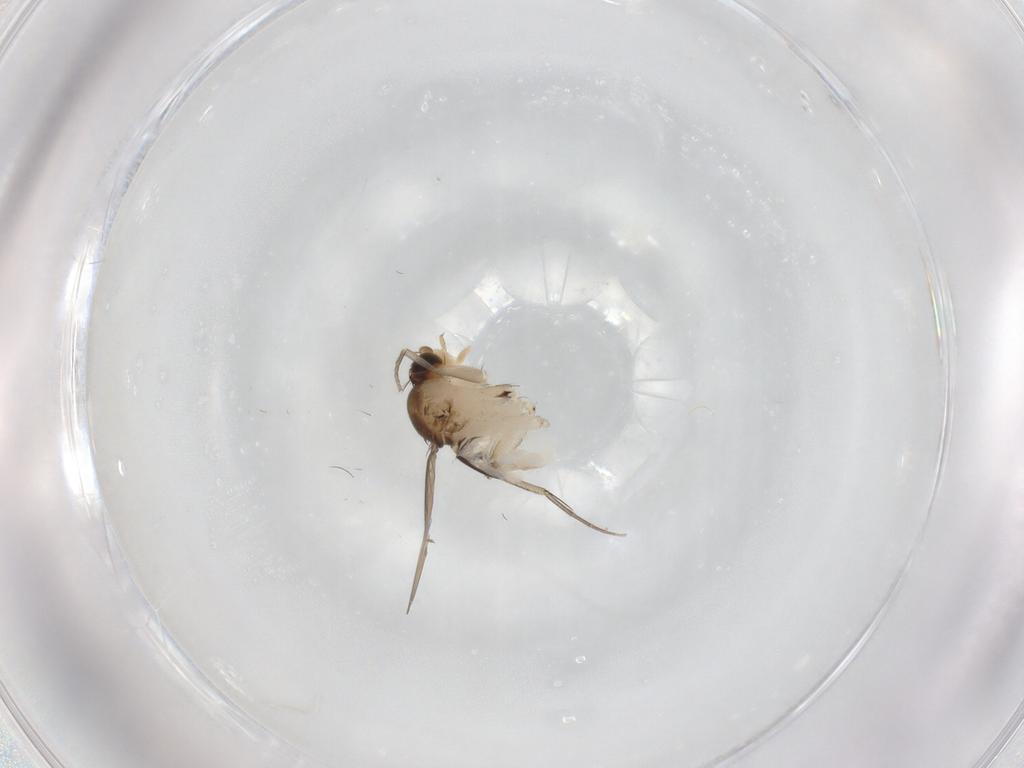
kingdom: Animalia
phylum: Arthropoda
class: Insecta
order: Diptera
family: Phoridae
